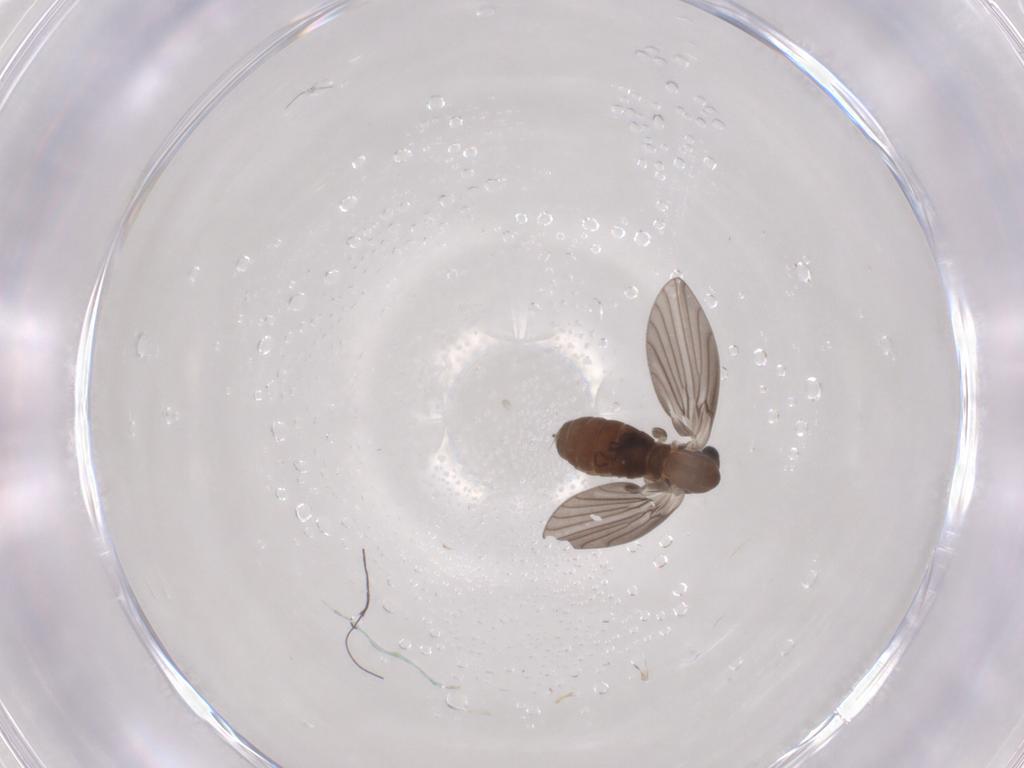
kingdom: Animalia
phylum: Arthropoda
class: Insecta
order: Diptera
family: Psychodidae
